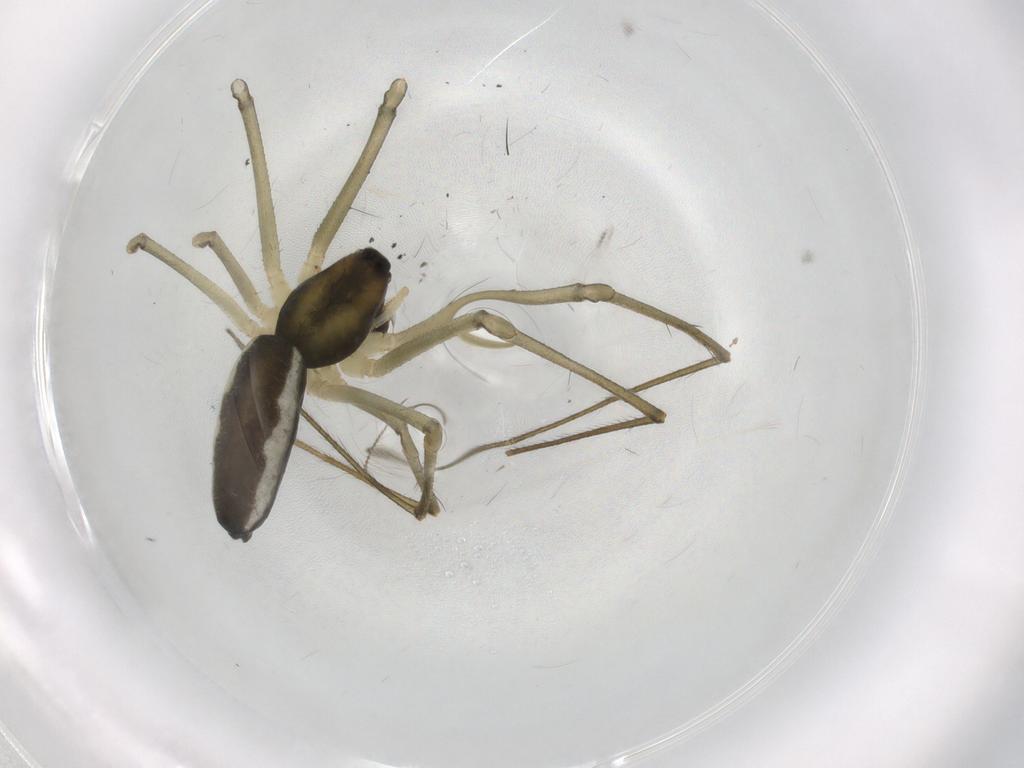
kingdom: Animalia
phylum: Arthropoda
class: Arachnida
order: Araneae
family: Linyphiidae
